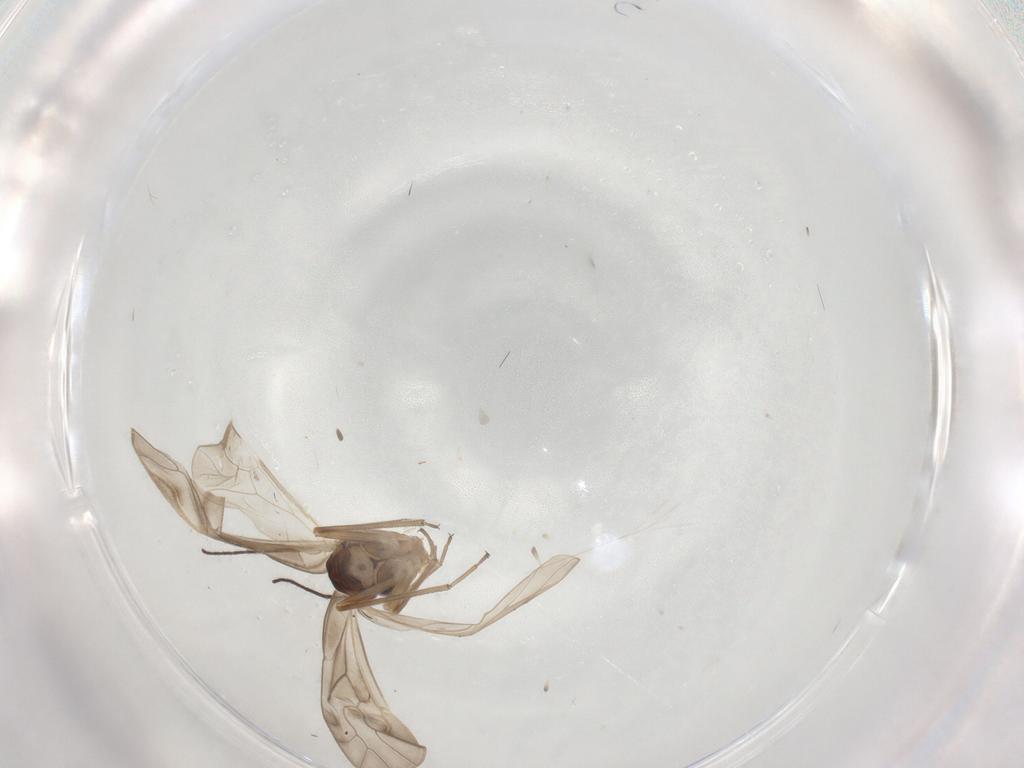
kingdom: Animalia
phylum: Arthropoda
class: Insecta
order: Psocodea
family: Philotarsidae
